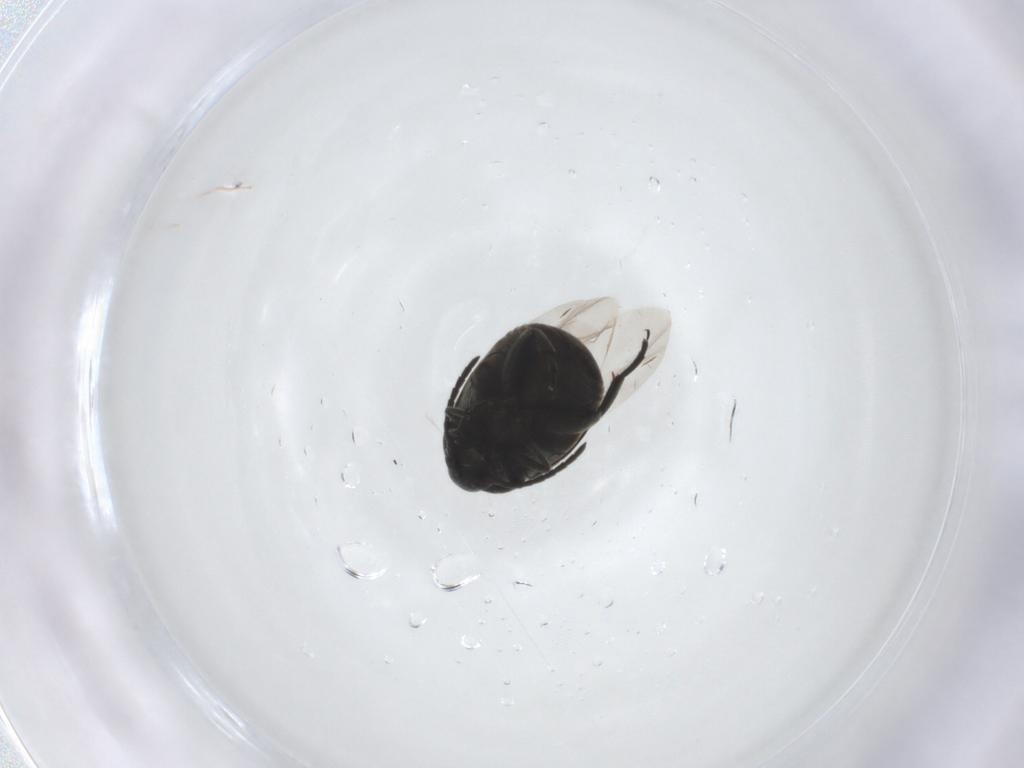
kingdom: Animalia
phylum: Arthropoda
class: Insecta
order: Coleoptera
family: Chrysomelidae
